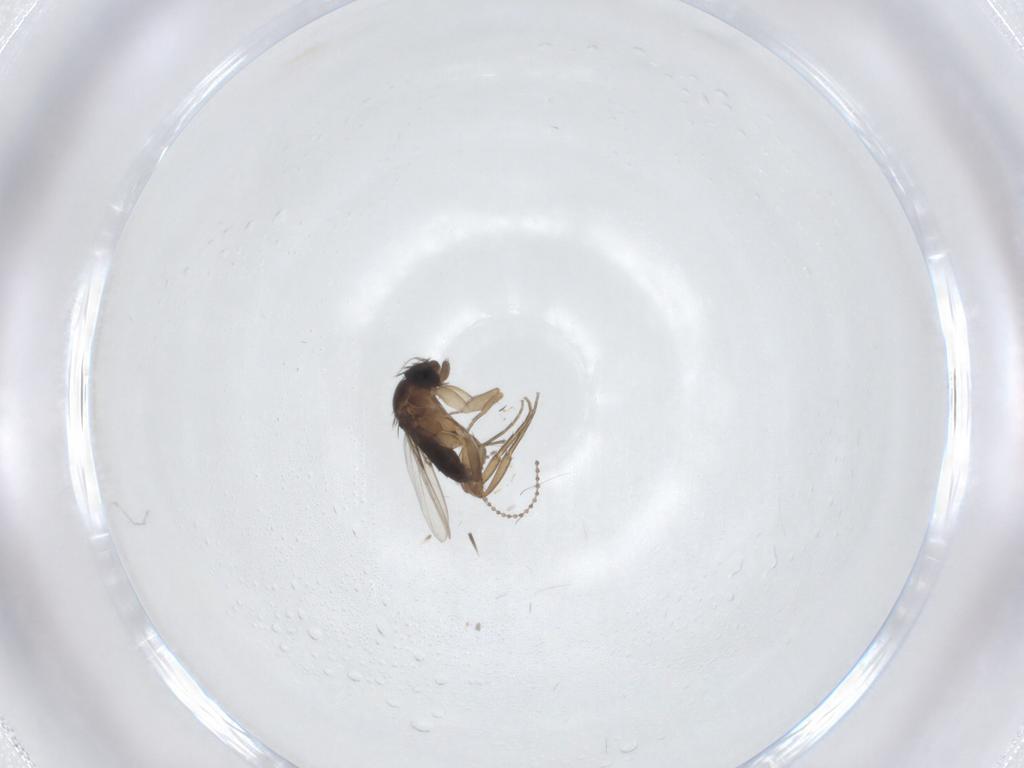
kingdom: Animalia
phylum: Arthropoda
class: Insecta
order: Diptera
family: Cecidomyiidae
